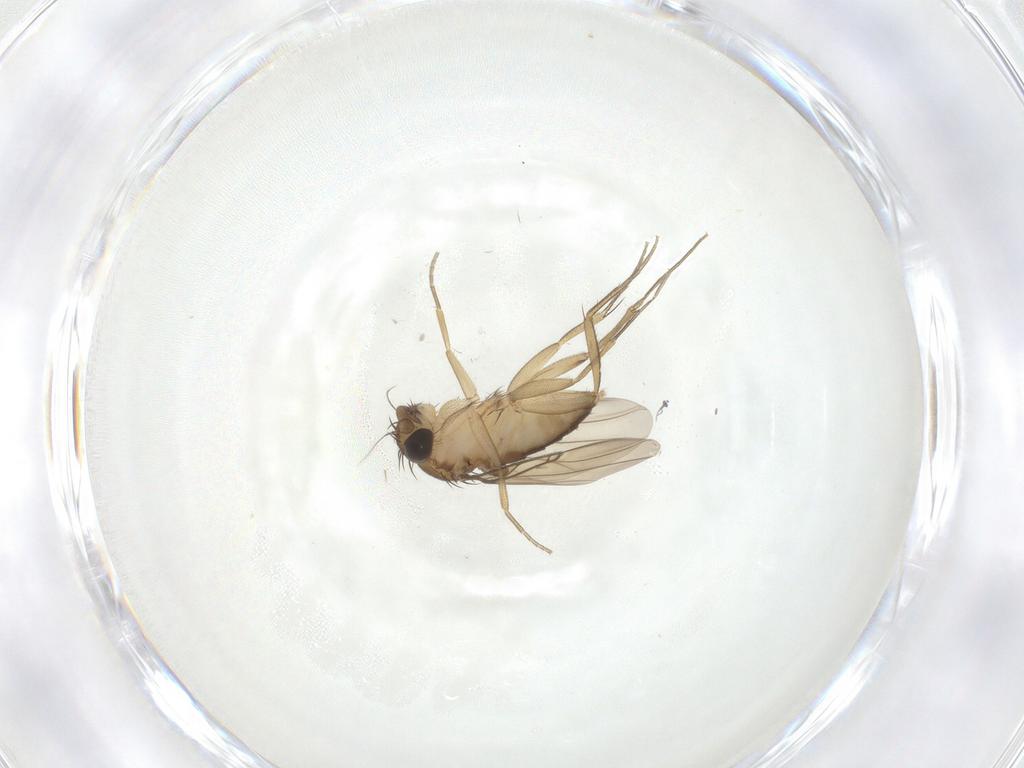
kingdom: Animalia
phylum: Arthropoda
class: Insecta
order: Diptera
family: Phoridae
